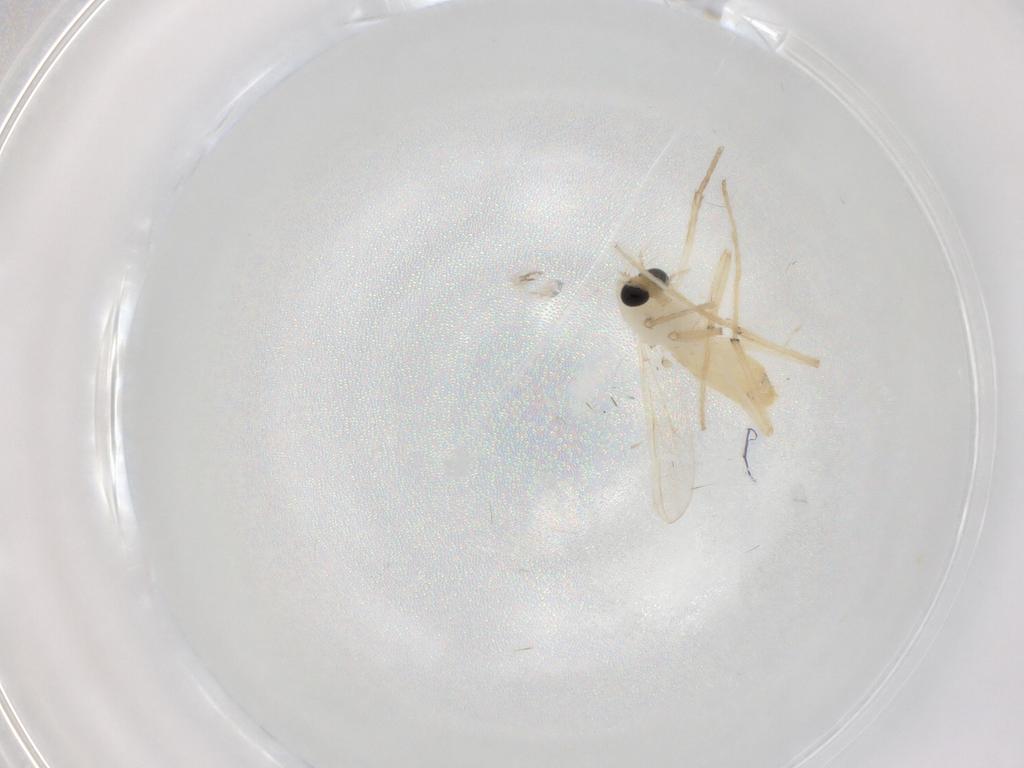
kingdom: Animalia
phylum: Arthropoda
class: Insecta
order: Diptera
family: Chironomidae
